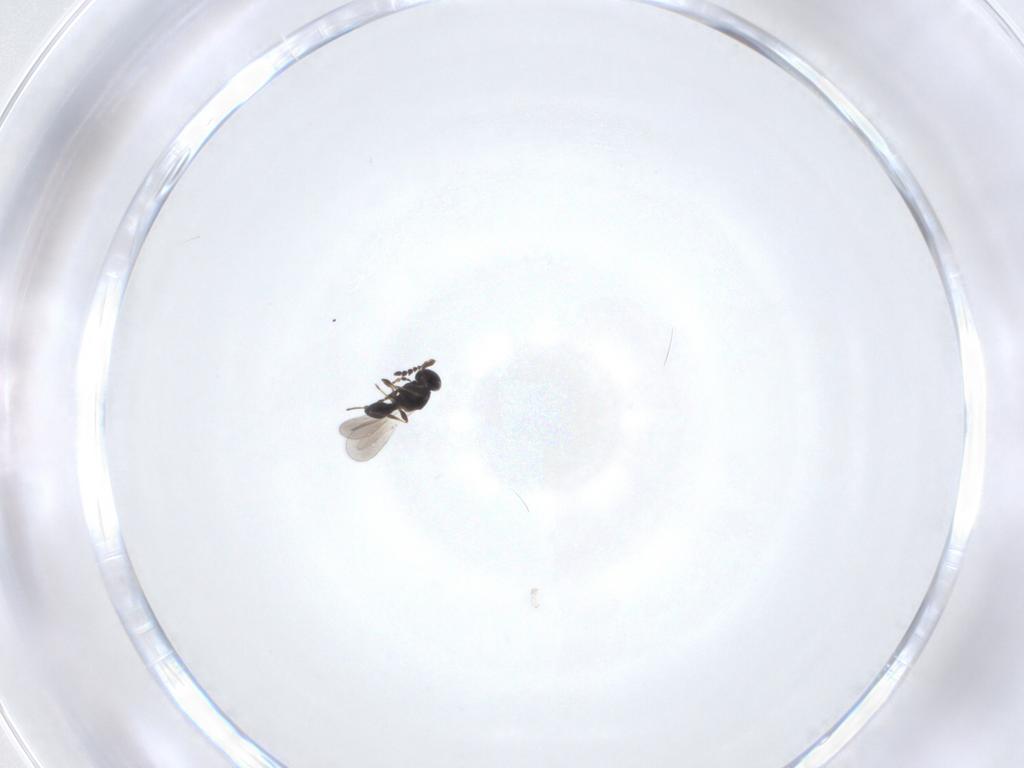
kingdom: Animalia
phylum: Arthropoda
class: Insecta
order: Hymenoptera
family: Platygastridae
